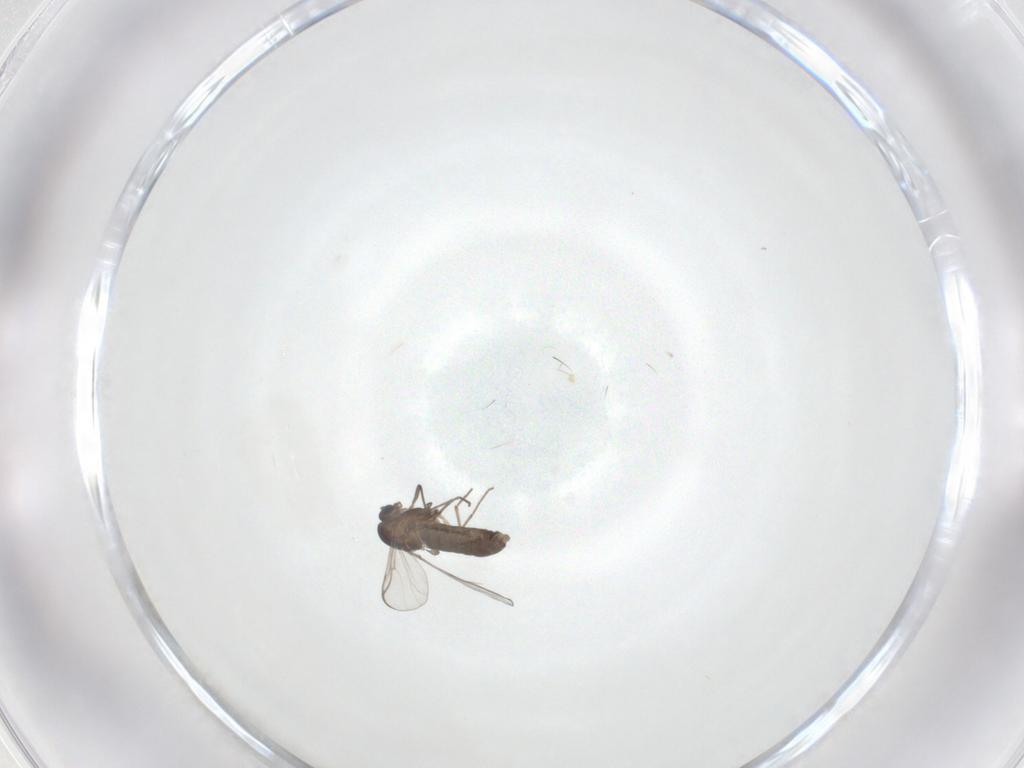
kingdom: Animalia
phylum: Arthropoda
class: Insecta
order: Diptera
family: Chironomidae
